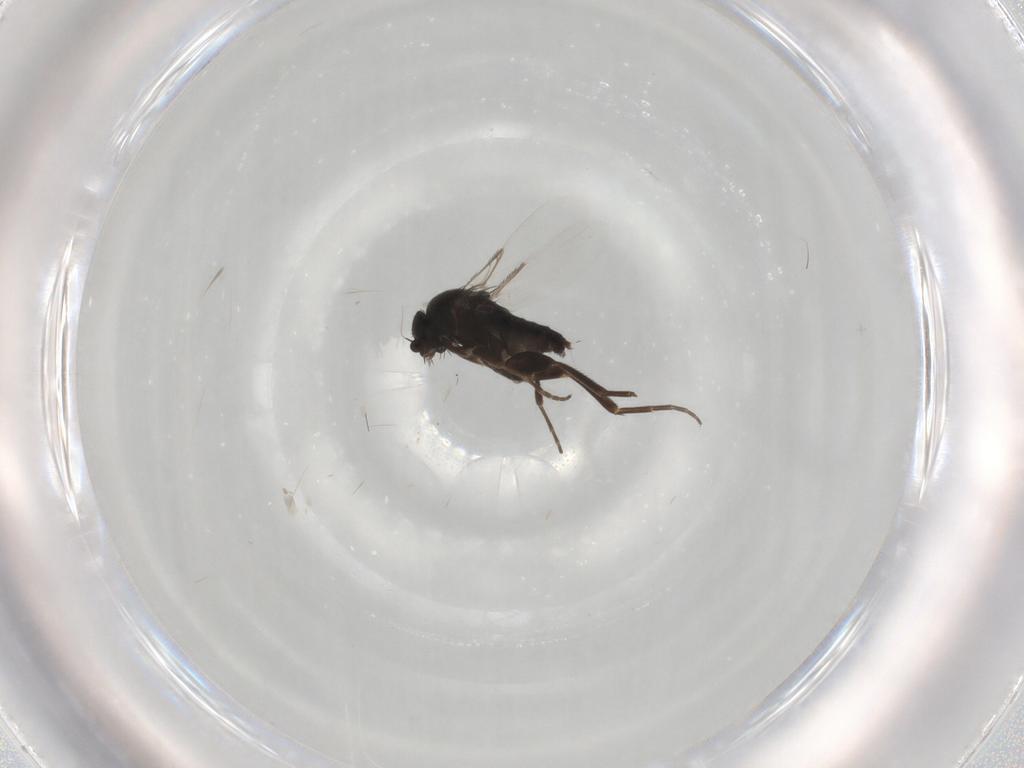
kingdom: Animalia
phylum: Arthropoda
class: Insecta
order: Diptera
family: Phoridae
